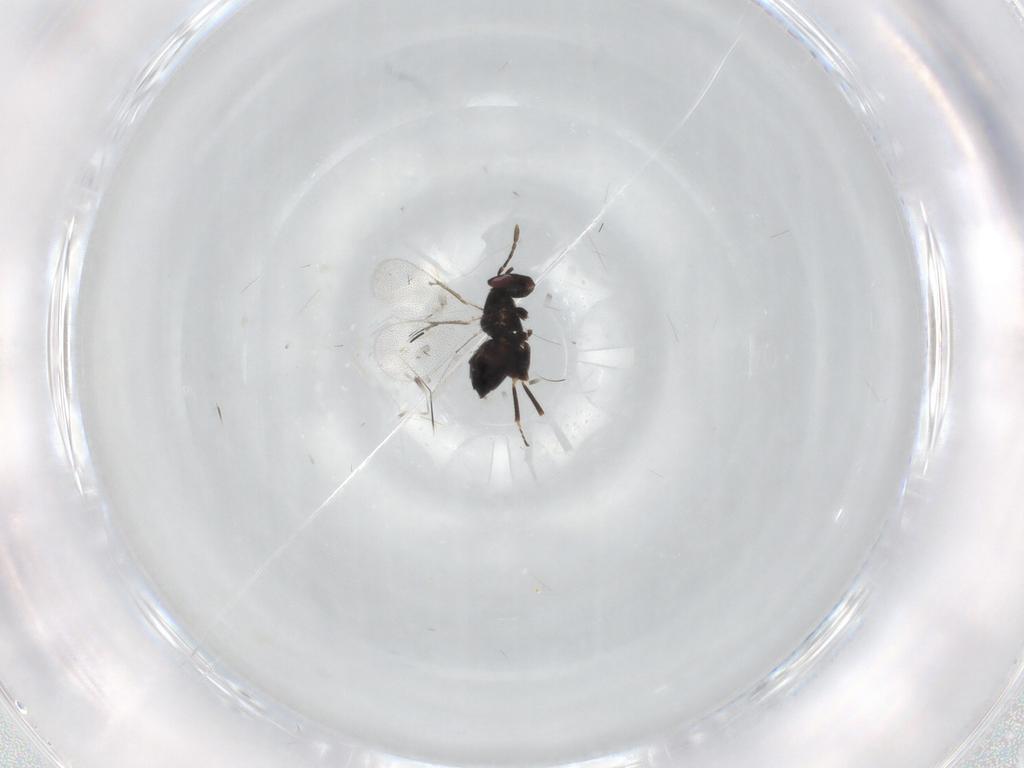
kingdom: Animalia
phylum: Arthropoda
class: Insecta
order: Hymenoptera
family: Eulophidae
